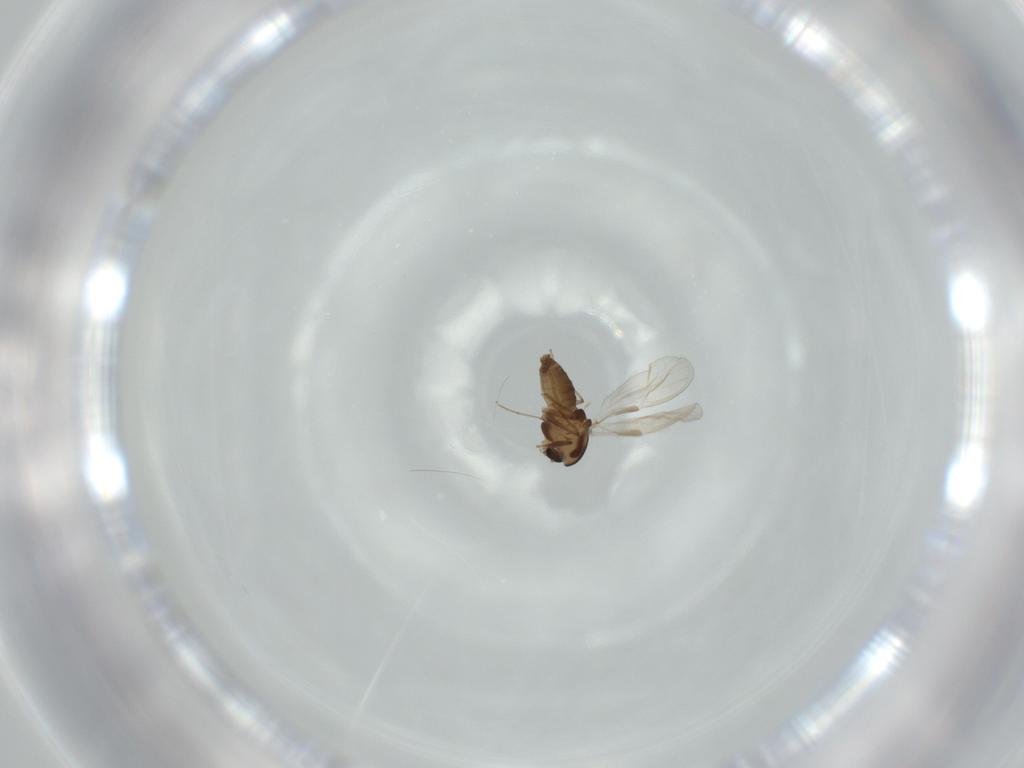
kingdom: Animalia
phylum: Arthropoda
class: Insecta
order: Diptera
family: Chironomidae
